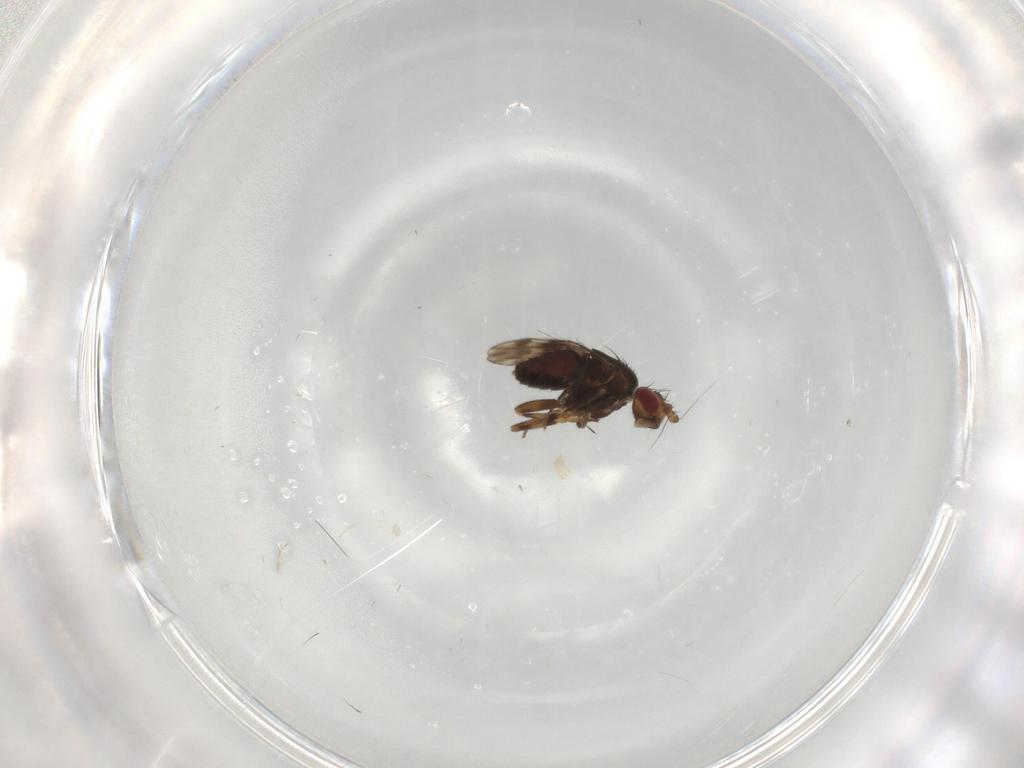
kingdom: Animalia
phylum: Arthropoda
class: Insecta
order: Diptera
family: Sphaeroceridae
